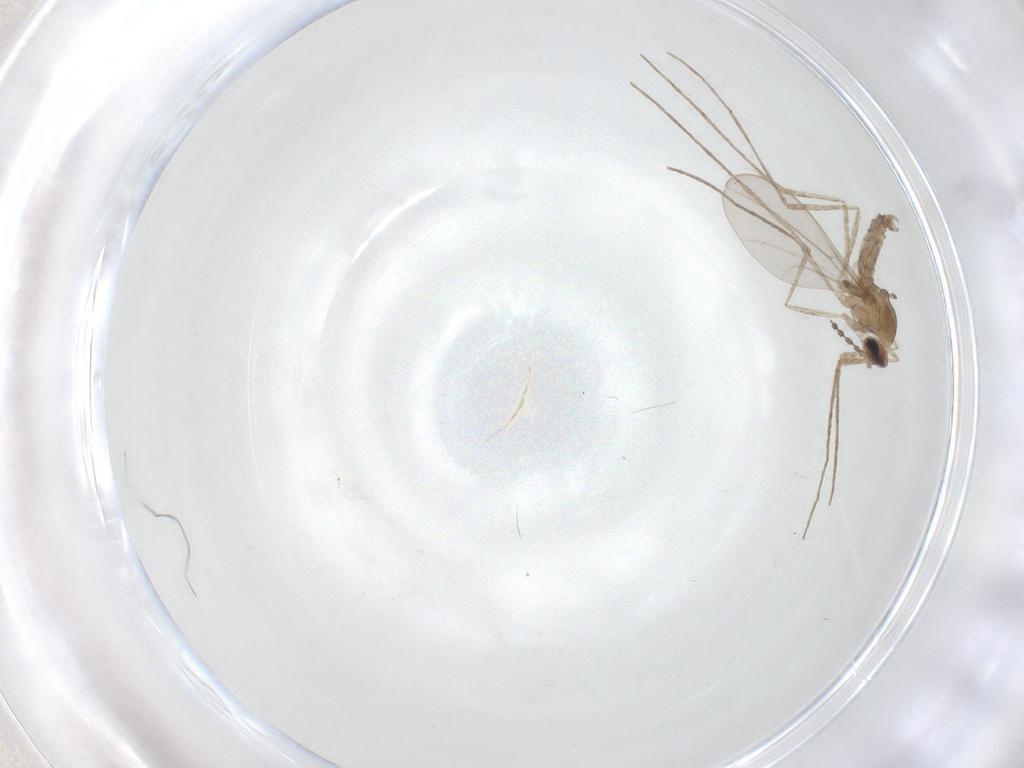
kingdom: Animalia
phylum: Arthropoda
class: Insecta
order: Diptera
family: Cecidomyiidae
